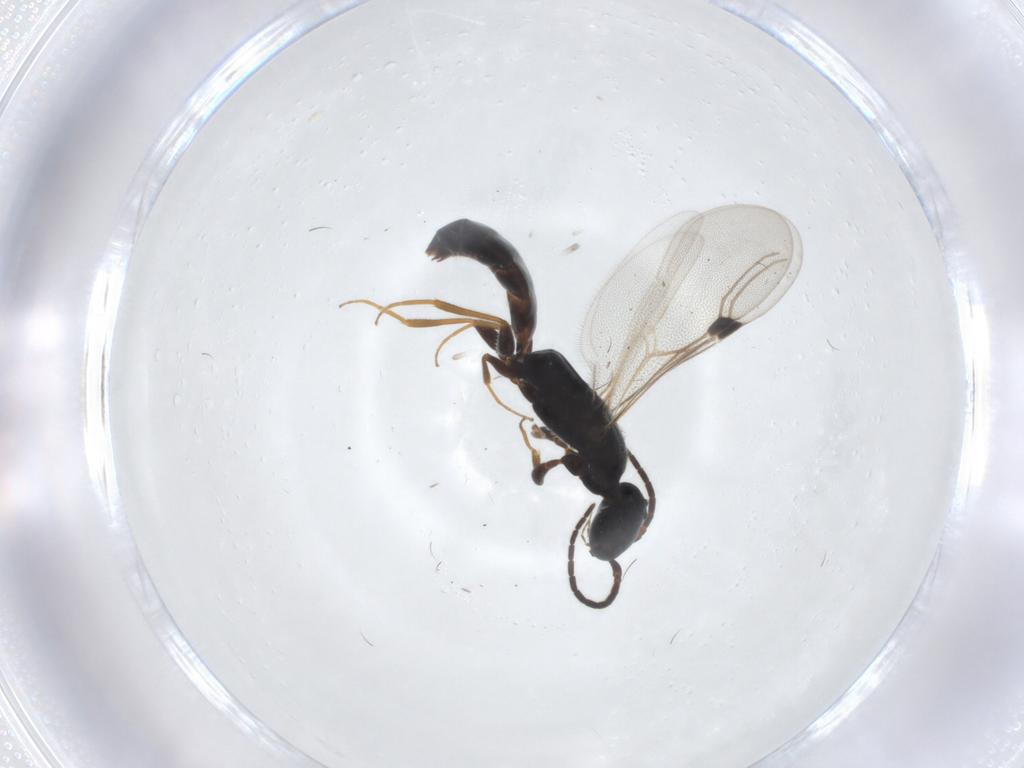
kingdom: Animalia
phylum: Arthropoda
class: Insecta
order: Hymenoptera
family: Bethylidae
